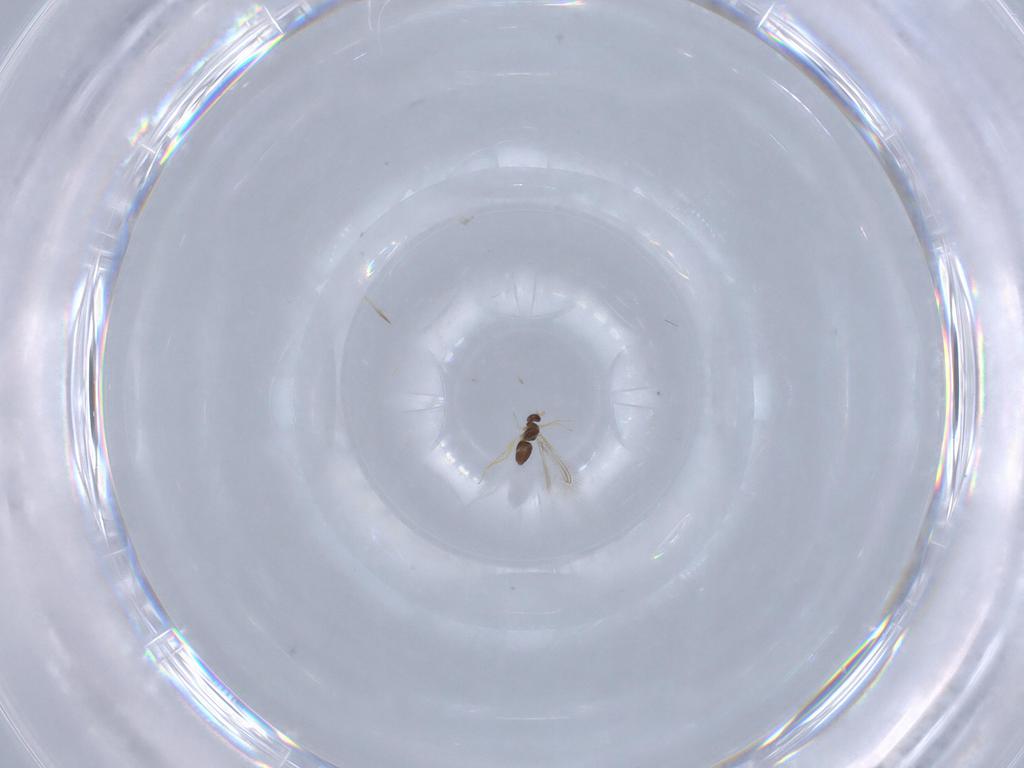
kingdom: Animalia
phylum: Arthropoda
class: Insecta
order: Hymenoptera
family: Mymaridae
